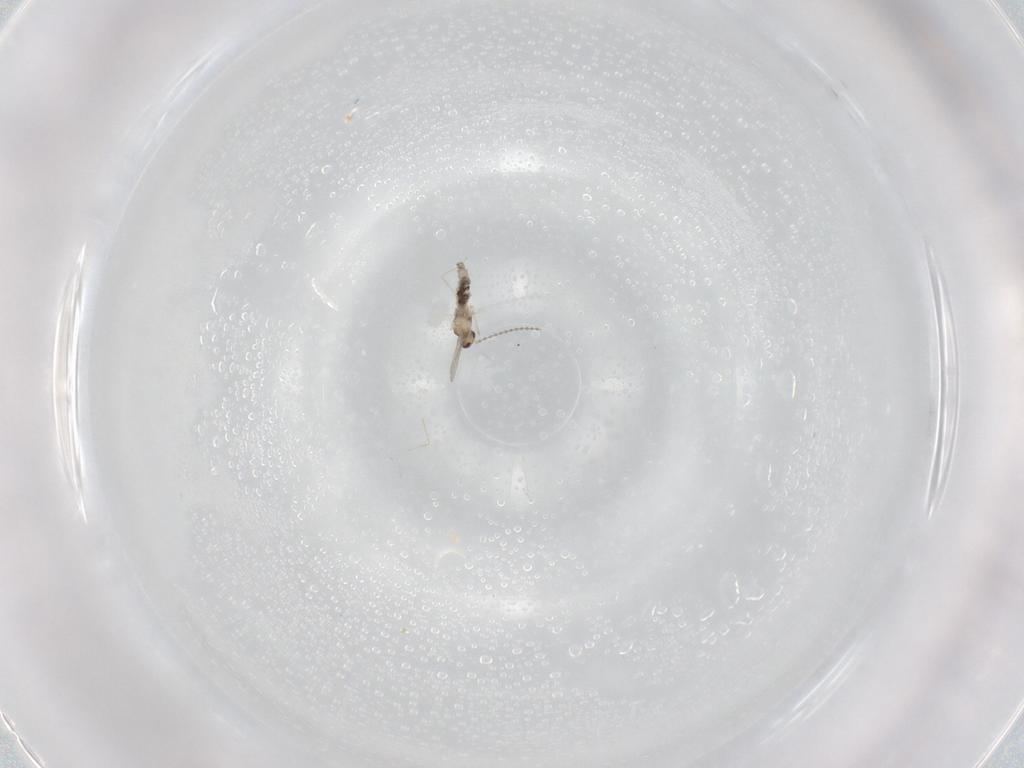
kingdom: Animalia
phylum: Arthropoda
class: Insecta
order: Diptera
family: Cecidomyiidae
